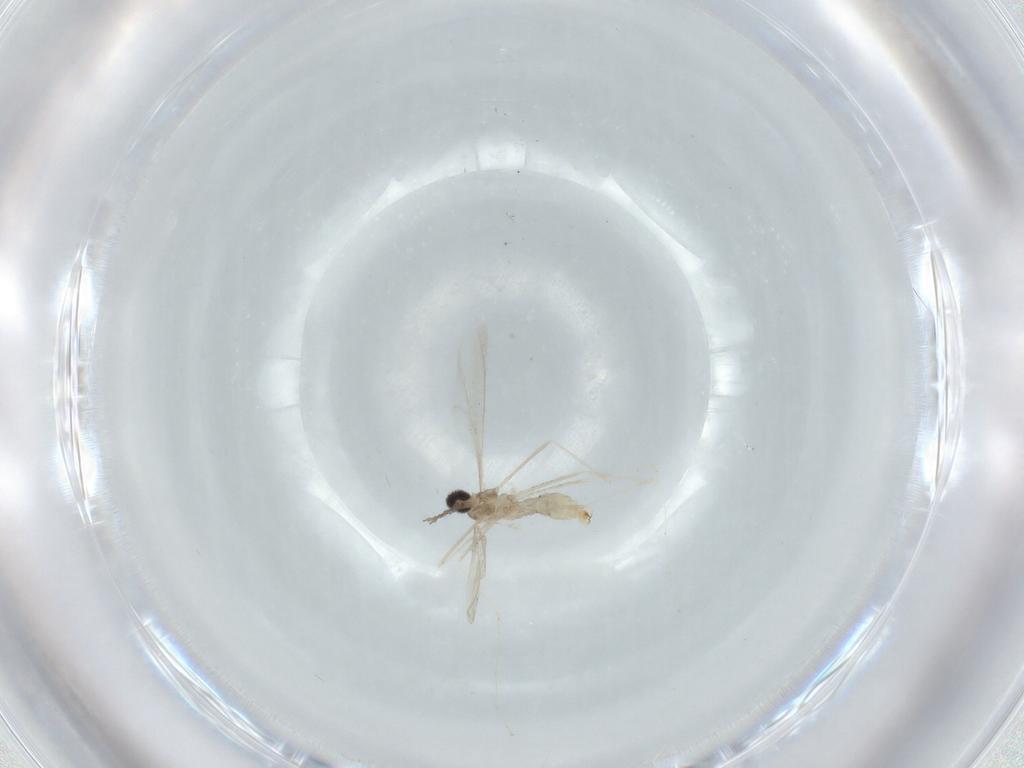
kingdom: Animalia
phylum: Arthropoda
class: Insecta
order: Diptera
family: Cecidomyiidae
